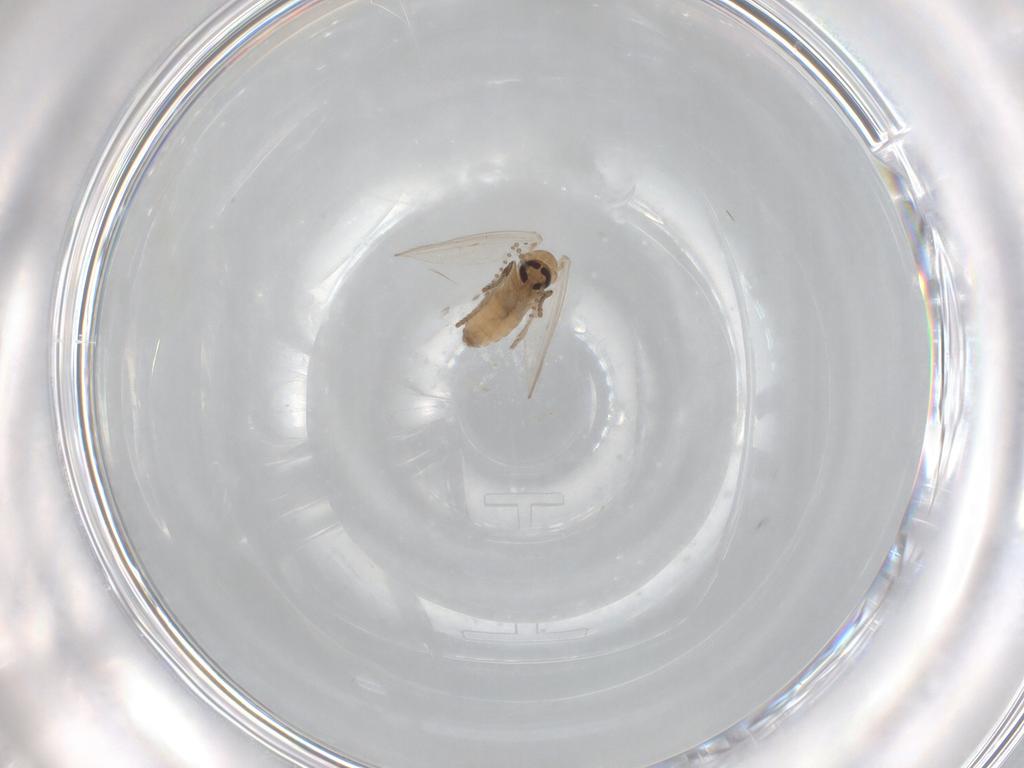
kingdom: Animalia
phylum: Arthropoda
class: Insecta
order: Diptera
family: Psychodidae
